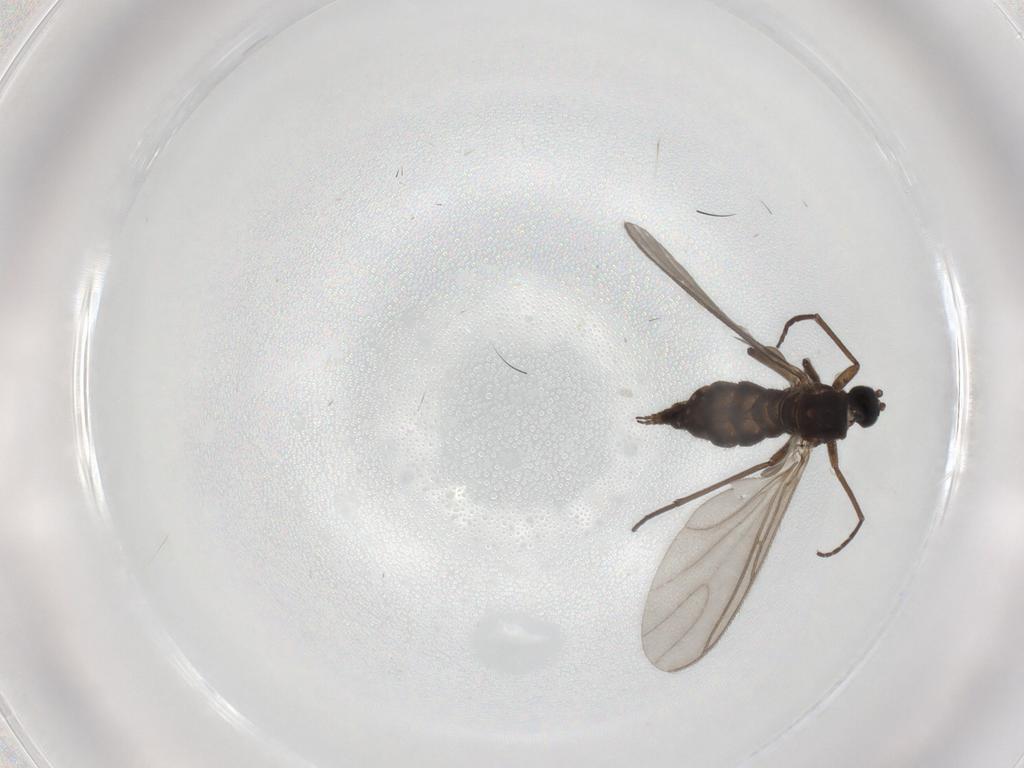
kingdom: Animalia
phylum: Arthropoda
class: Insecta
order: Diptera
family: Sciaridae
